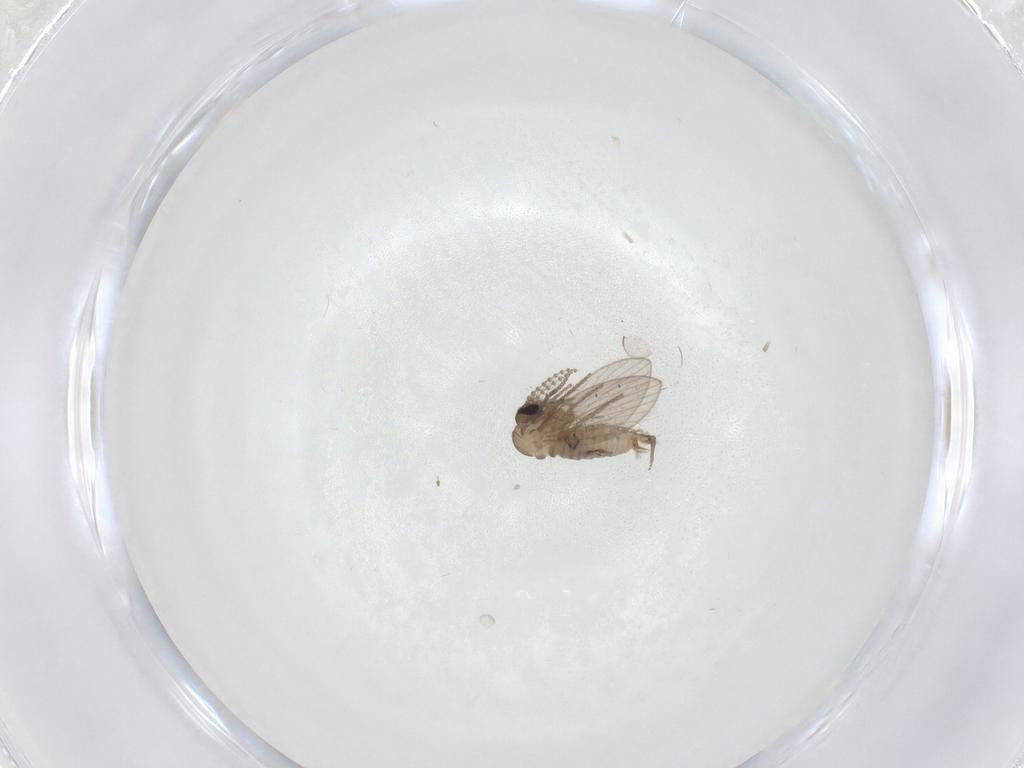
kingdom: Animalia
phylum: Arthropoda
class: Insecta
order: Diptera
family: Psychodidae
